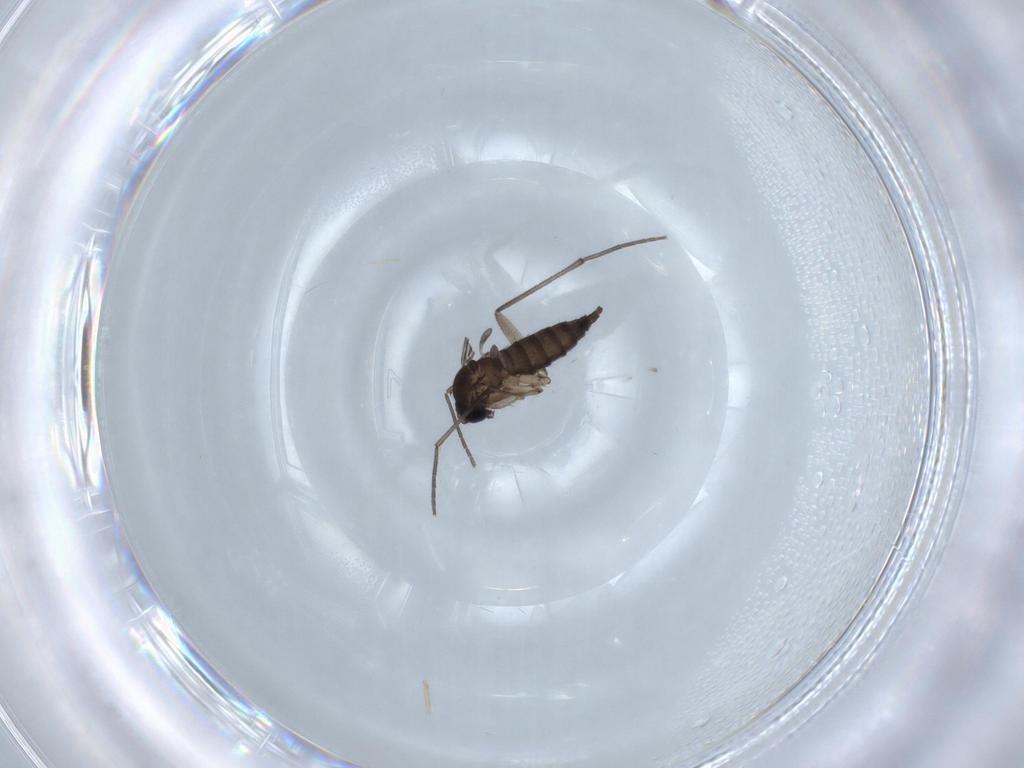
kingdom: Animalia
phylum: Arthropoda
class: Insecta
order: Diptera
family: Sciaridae
